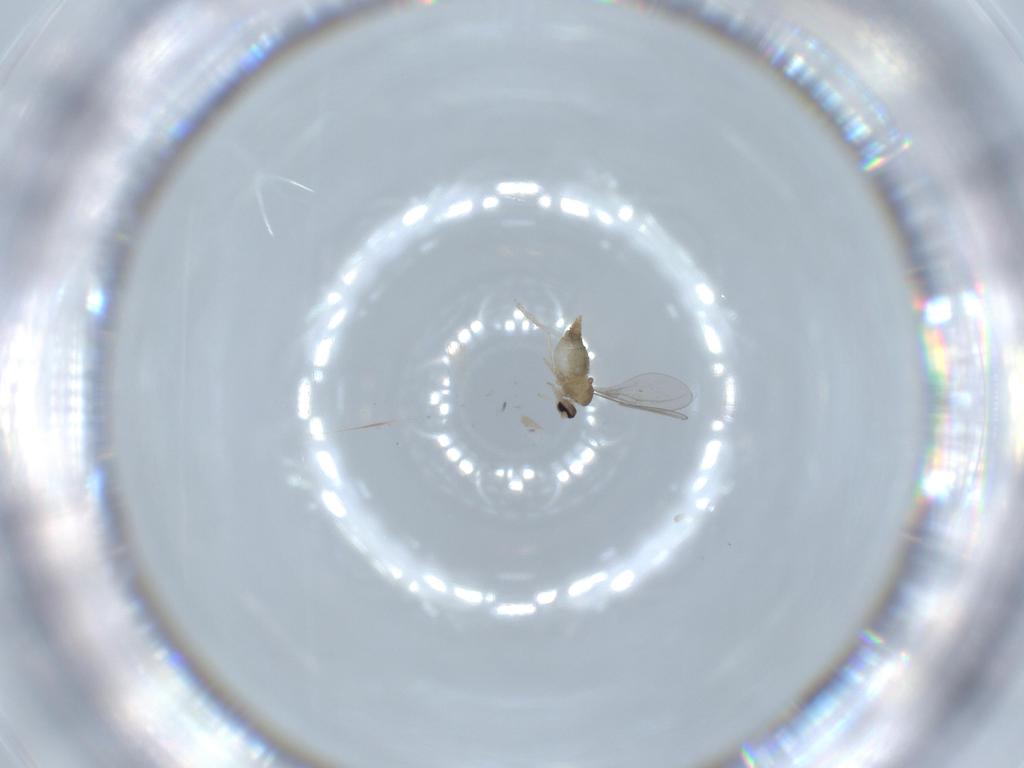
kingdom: Animalia
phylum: Arthropoda
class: Insecta
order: Diptera
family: Cecidomyiidae
